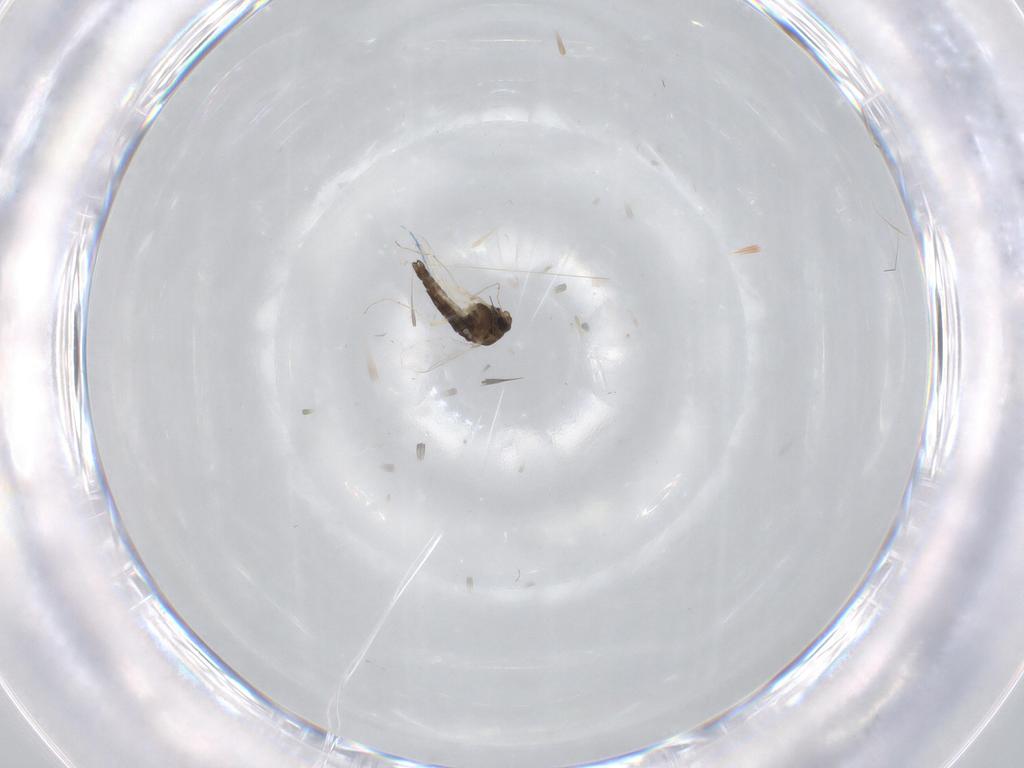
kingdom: Animalia
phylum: Arthropoda
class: Insecta
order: Diptera
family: Chironomidae
